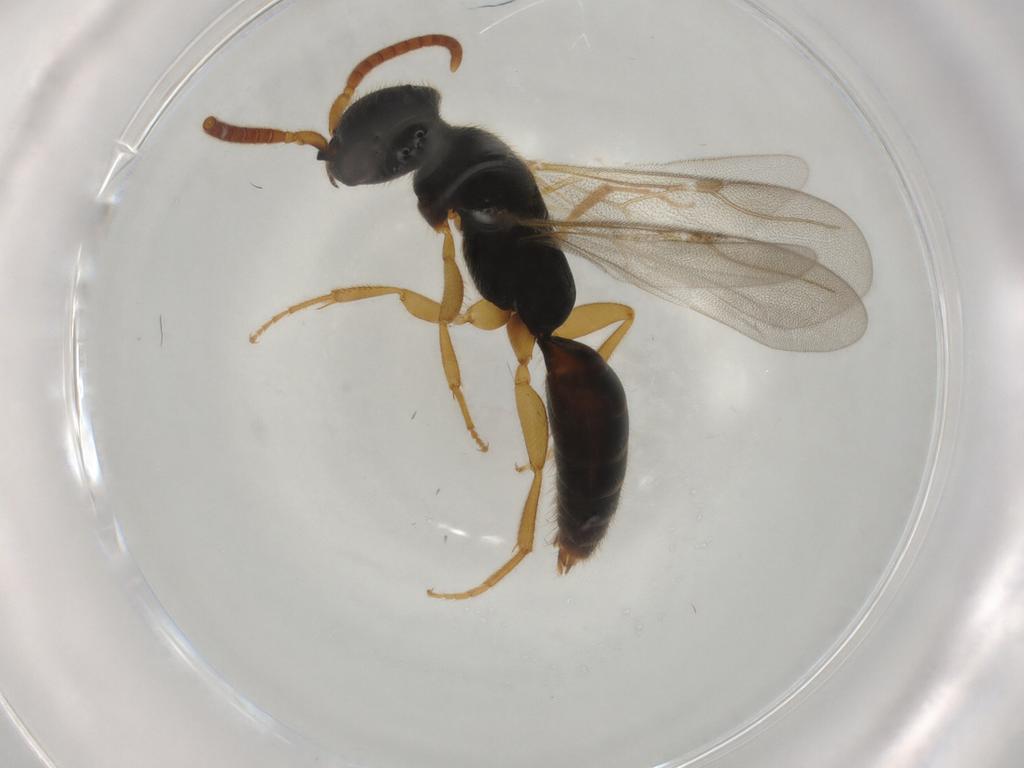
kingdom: Animalia
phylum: Arthropoda
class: Insecta
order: Hymenoptera
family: Bethylidae
